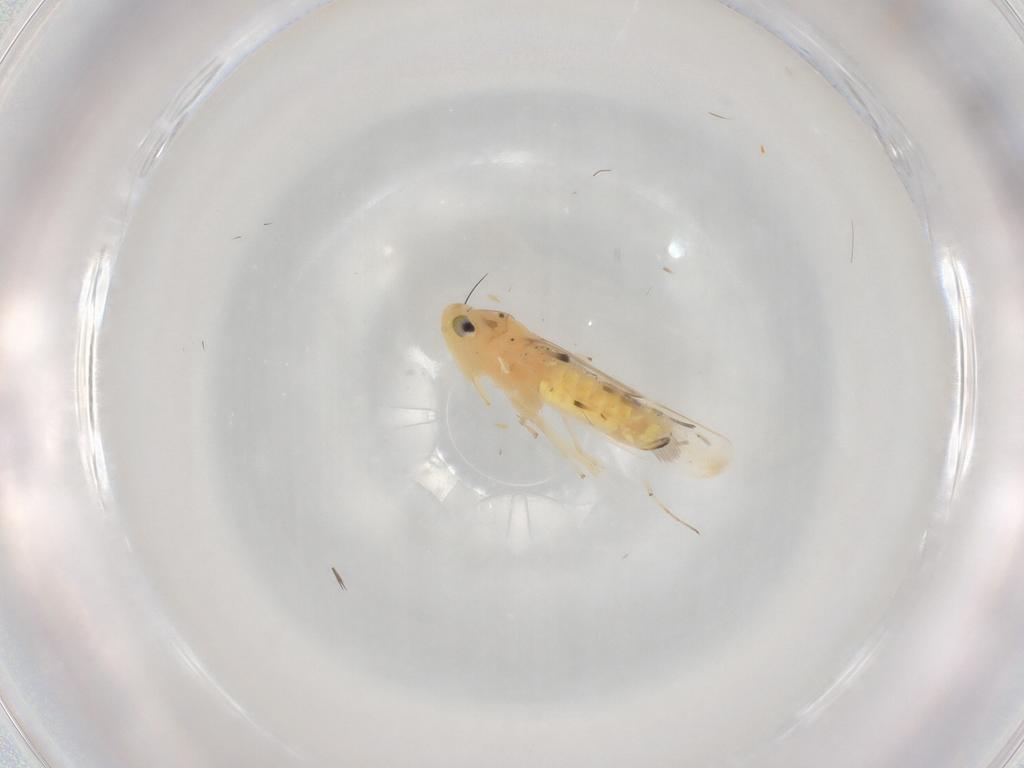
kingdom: Animalia
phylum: Arthropoda
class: Insecta
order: Hemiptera
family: Cicadellidae
